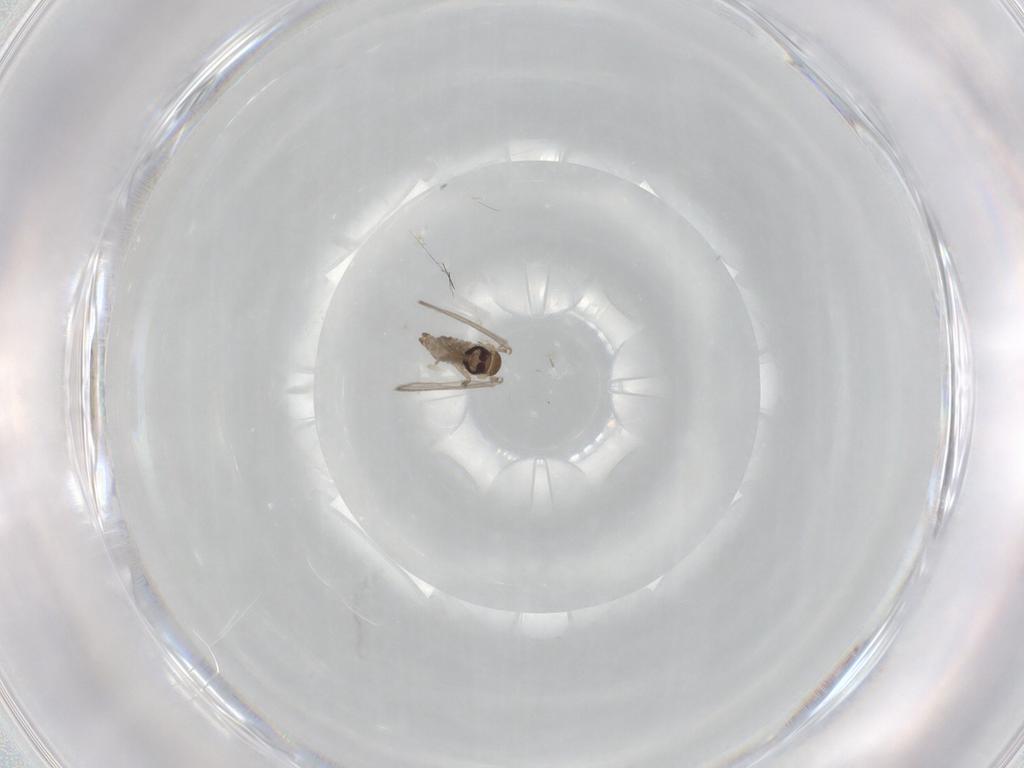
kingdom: Animalia
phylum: Arthropoda
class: Insecta
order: Diptera
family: Psychodidae
